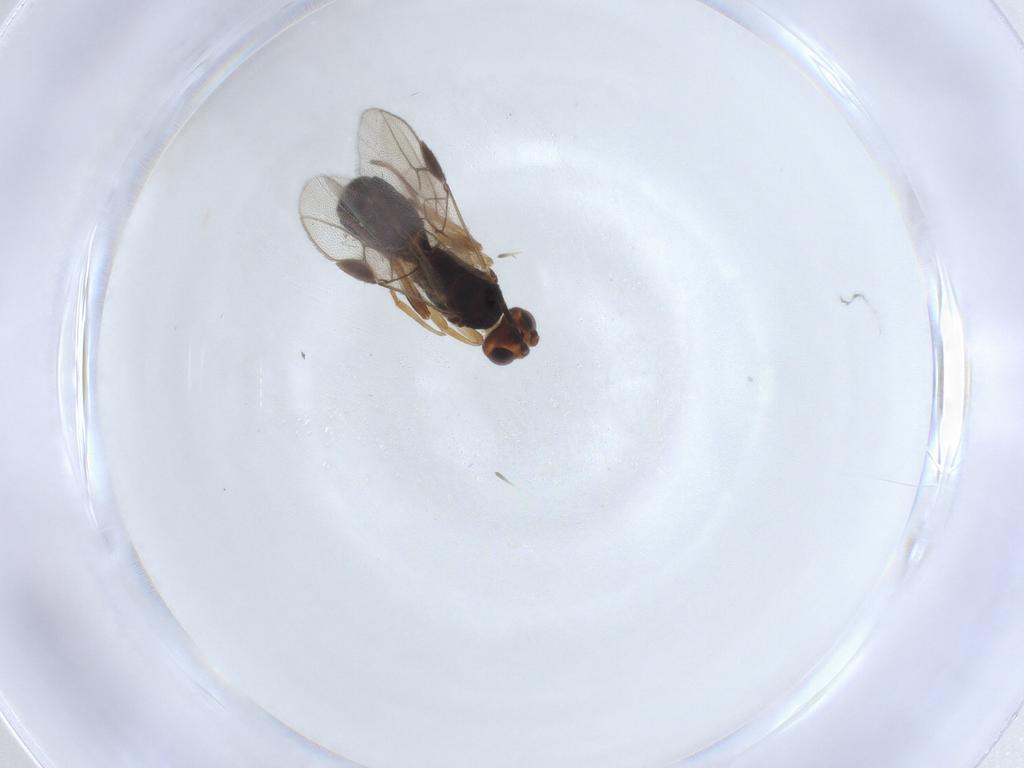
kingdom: Animalia
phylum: Arthropoda
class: Insecta
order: Diptera
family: Phoridae
